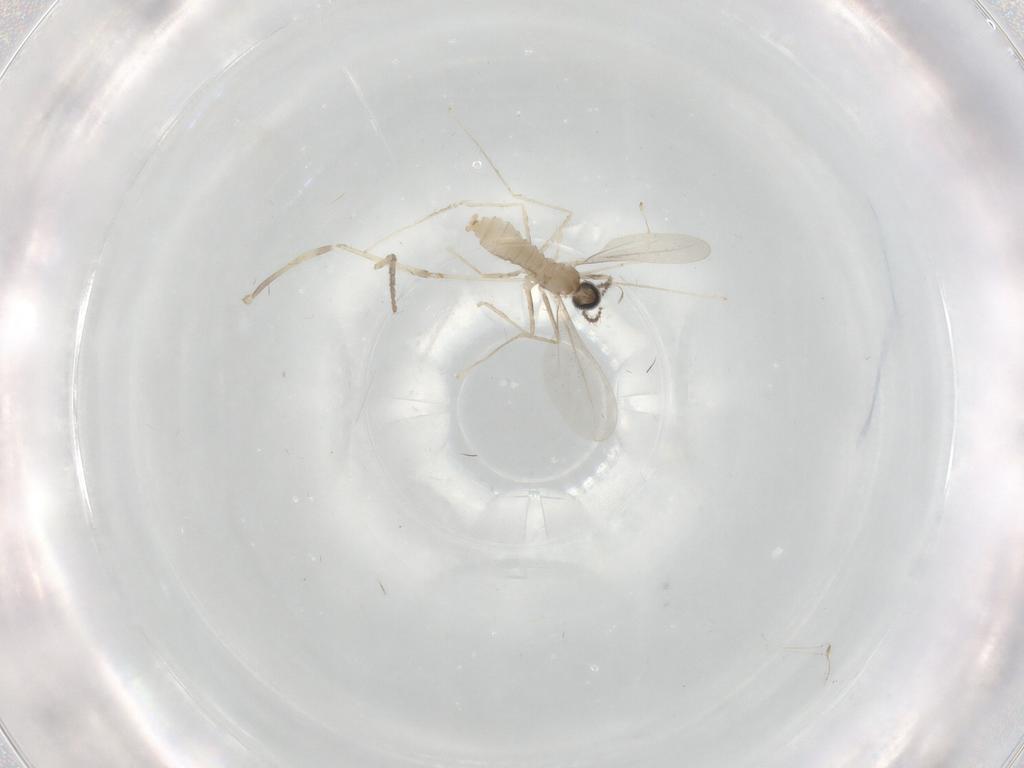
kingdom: Animalia
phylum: Arthropoda
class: Insecta
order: Diptera
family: Cecidomyiidae
